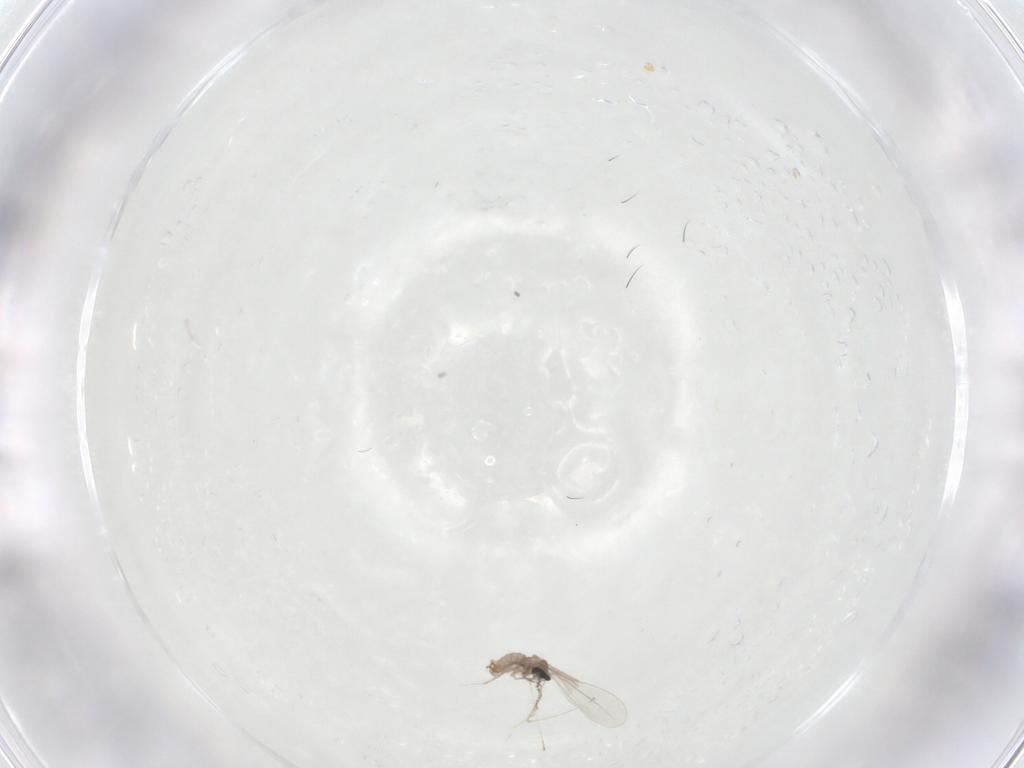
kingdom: Animalia
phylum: Arthropoda
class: Insecta
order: Diptera
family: Cecidomyiidae
